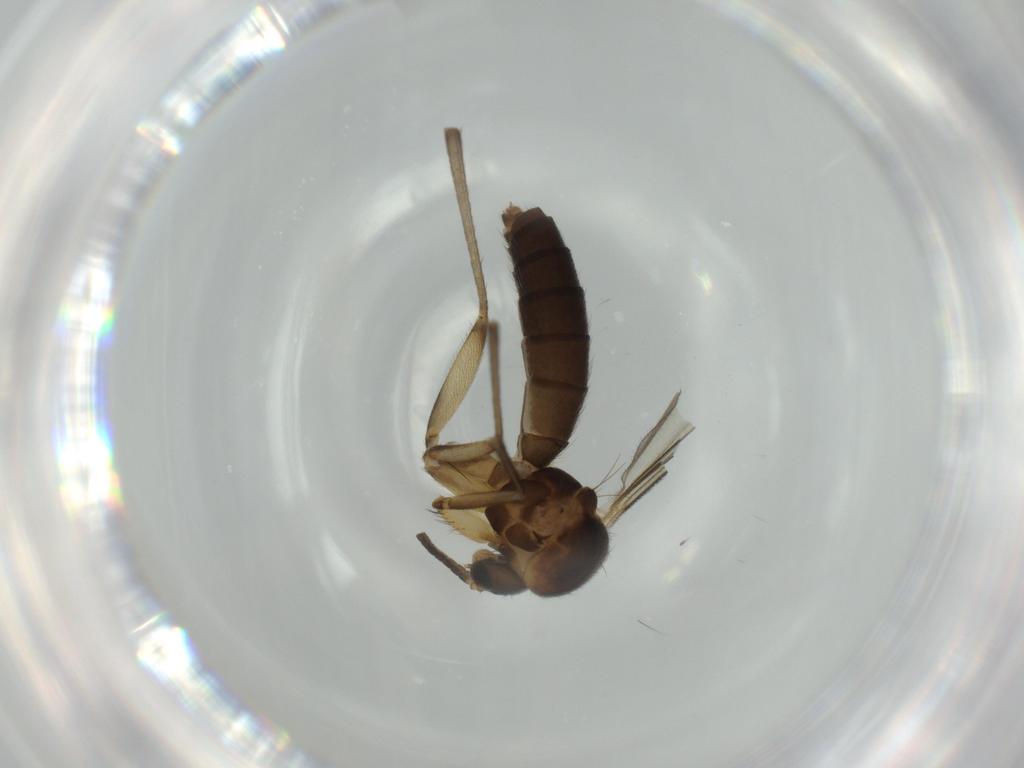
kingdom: Animalia
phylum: Arthropoda
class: Insecta
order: Diptera
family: Mycetophilidae
